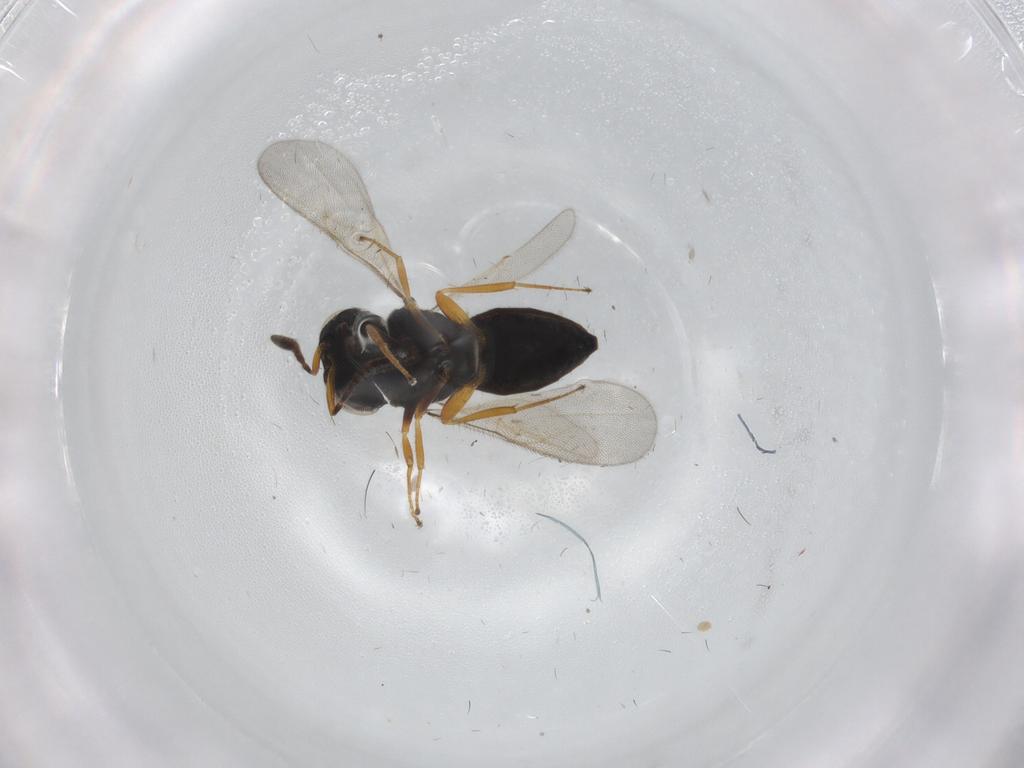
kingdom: Animalia
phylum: Arthropoda
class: Insecta
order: Hymenoptera
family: Scelionidae
